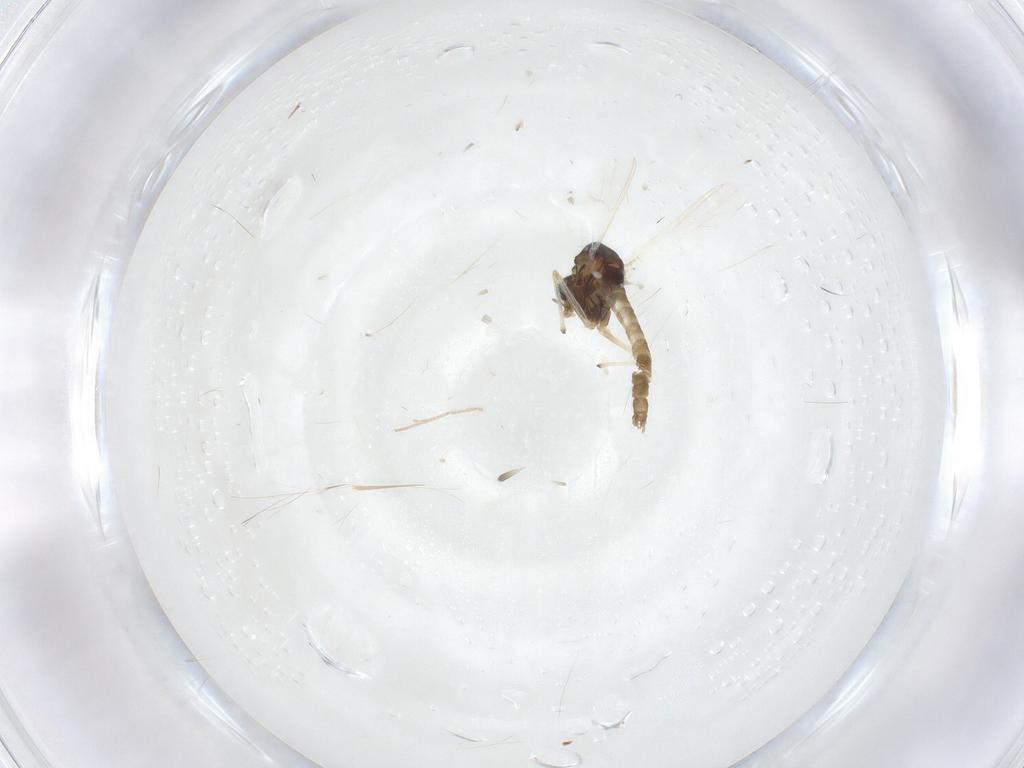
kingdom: Animalia
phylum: Arthropoda
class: Insecta
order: Diptera
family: Chironomidae
